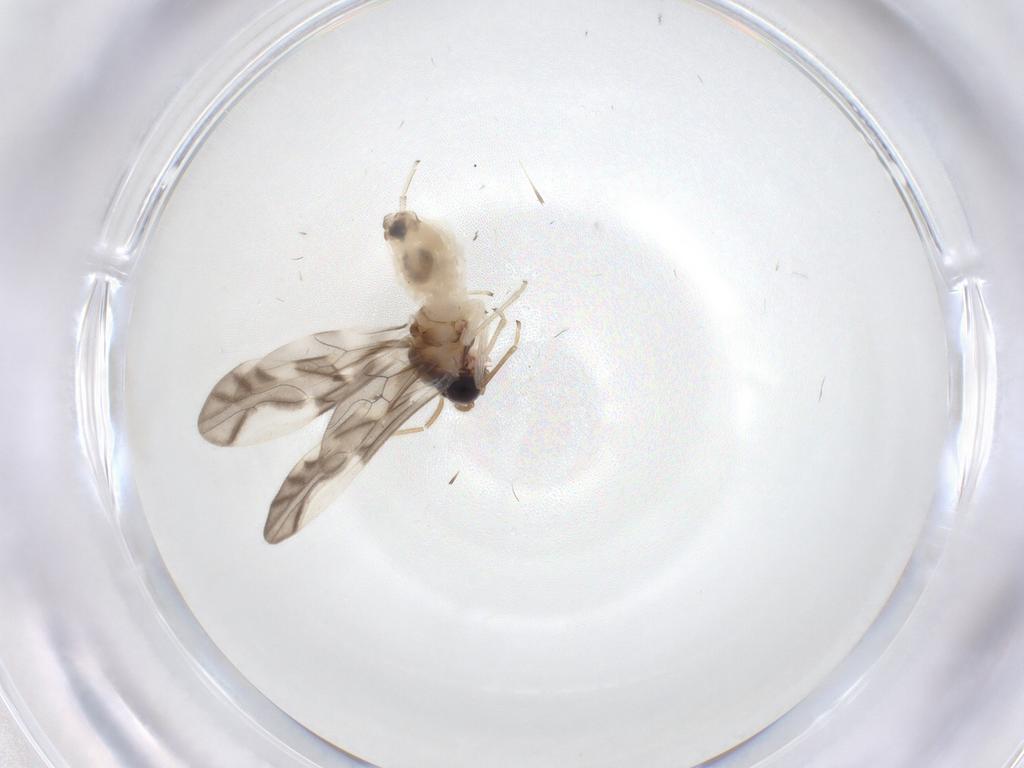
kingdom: Animalia
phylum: Arthropoda
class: Insecta
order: Psocodea
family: Caeciliusidae
